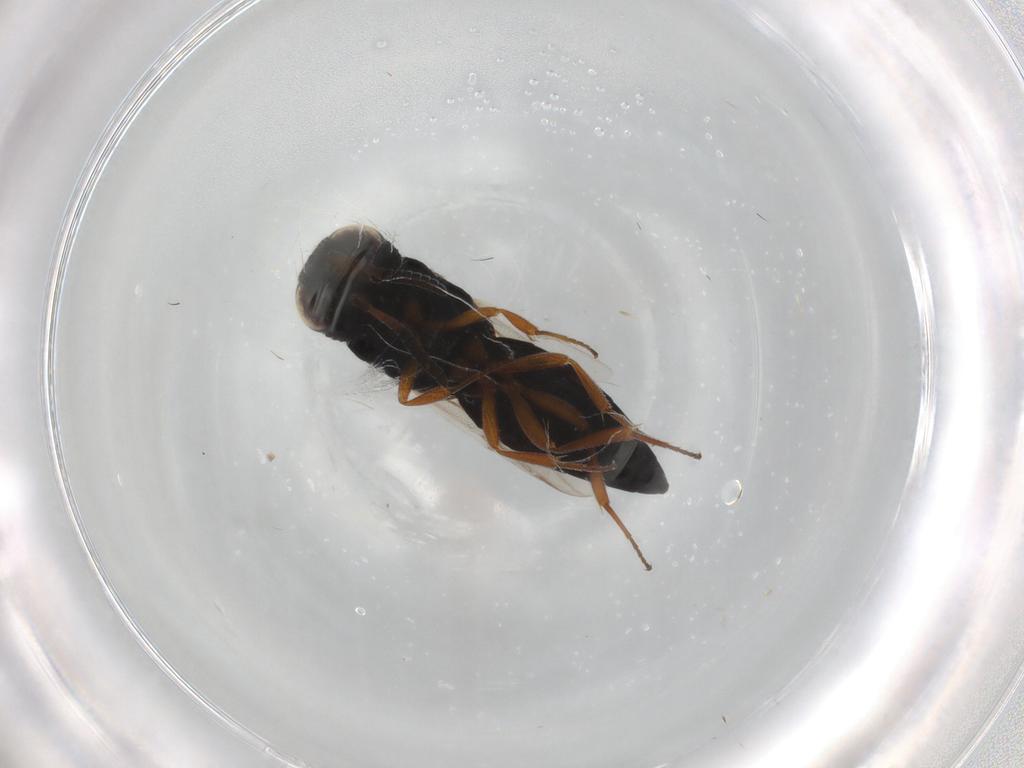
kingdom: Animalia
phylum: Arthropoda
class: Insecta
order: Hymenoptera
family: Scelionidae
